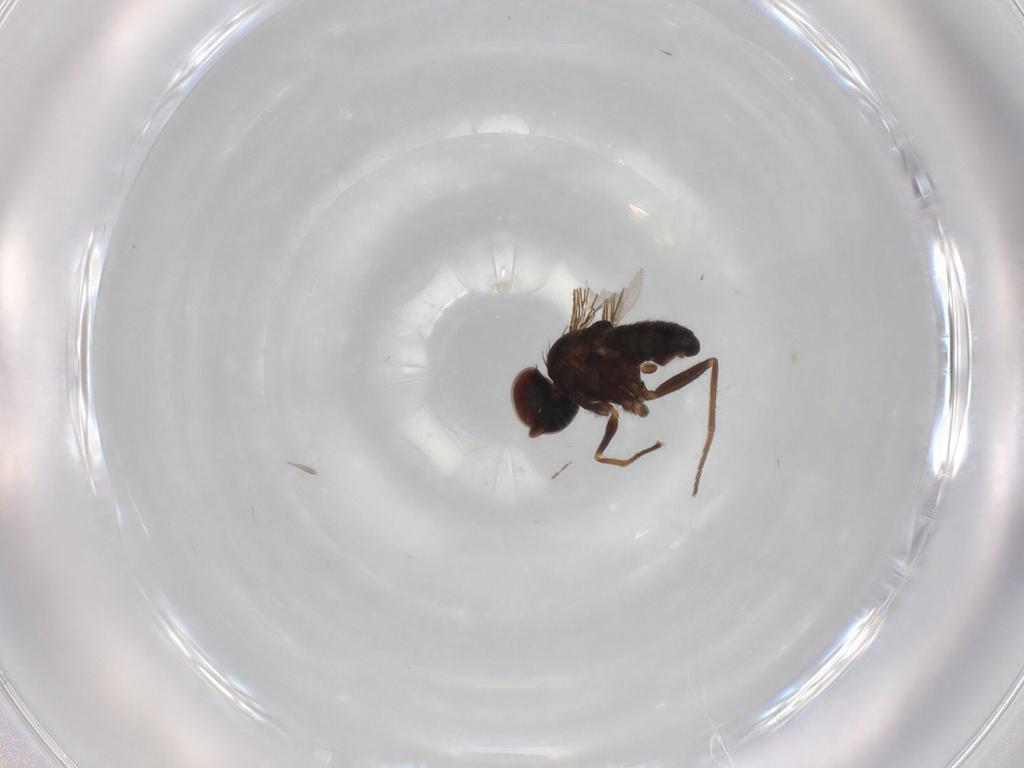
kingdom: Animalia
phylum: Arthropoda
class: Insecta
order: Diptera
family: Dolichopodidae
